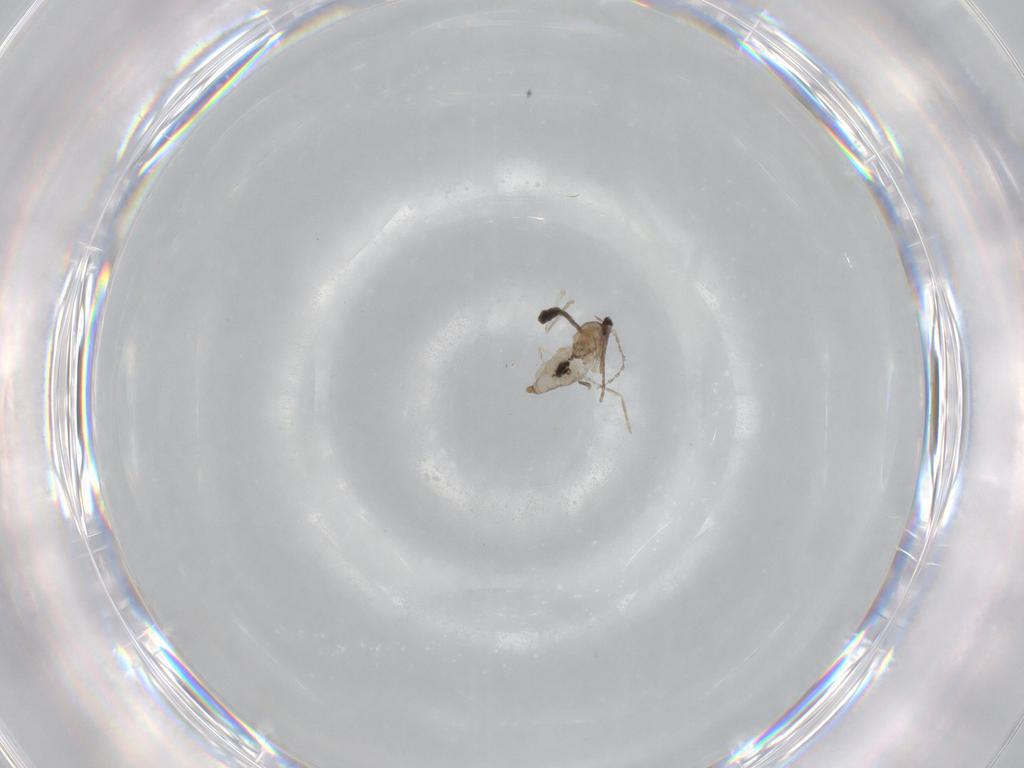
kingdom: Animalia
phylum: Arthropoda
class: Insecta
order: Diptera
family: Cecidomyiidae
